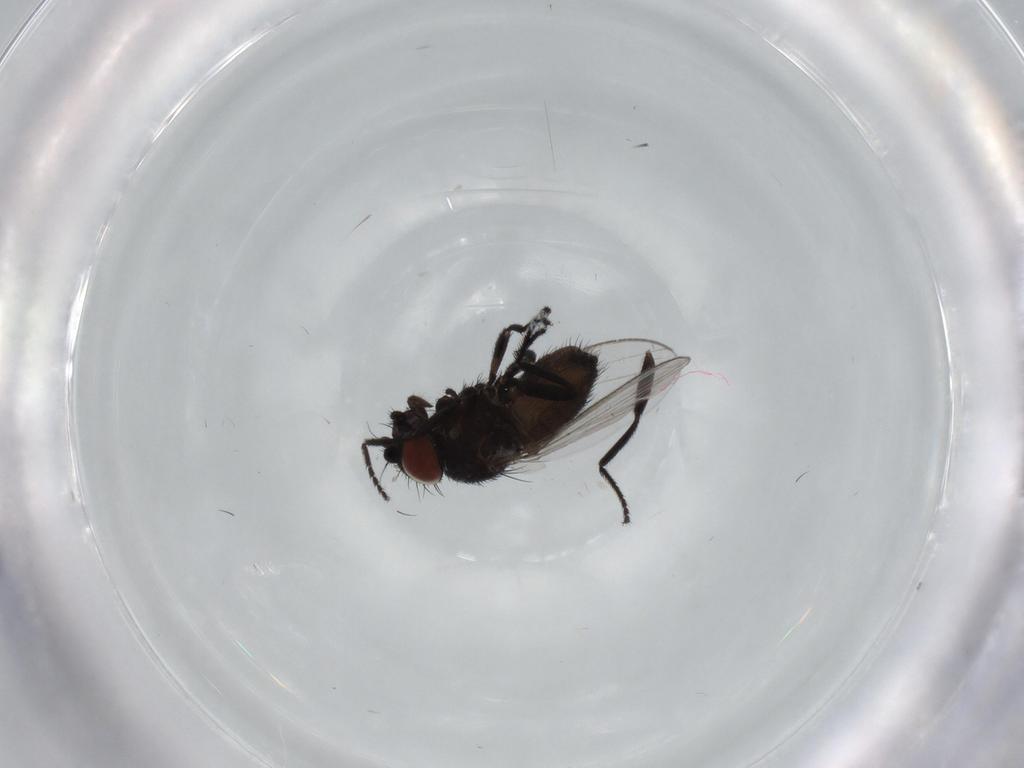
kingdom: Animalia
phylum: Arthropoda
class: Insecta
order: Diptera
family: Milichiidae
